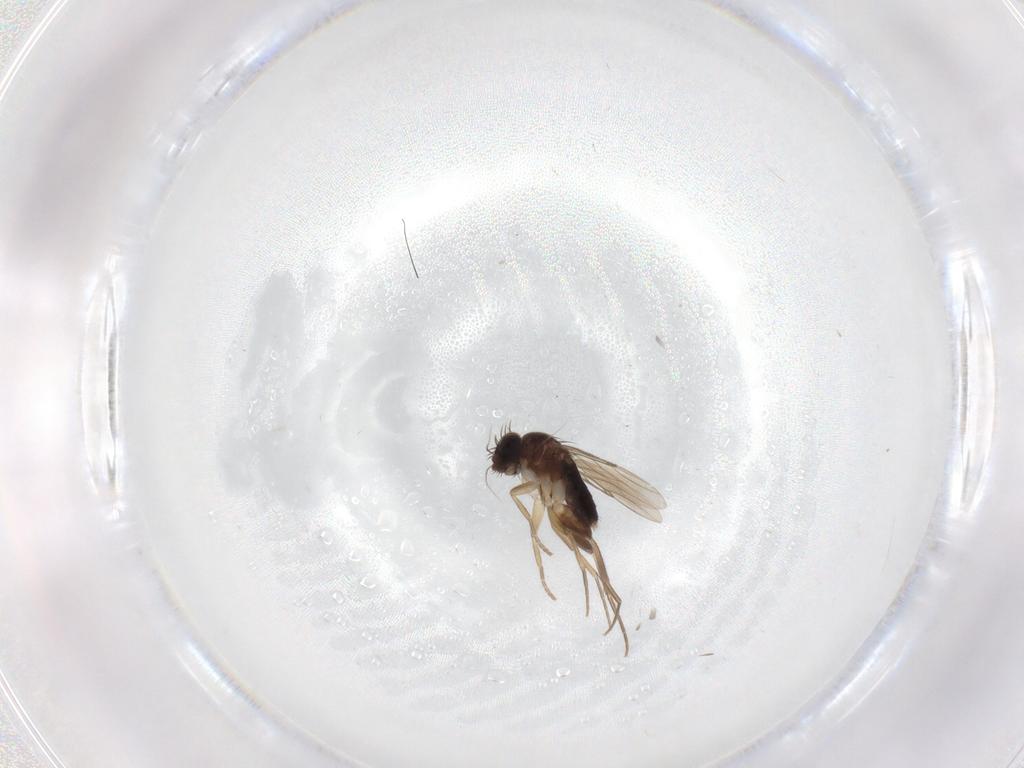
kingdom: Animalia
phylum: Arthropoda
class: Insecta
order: Diptera
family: Phoridae
